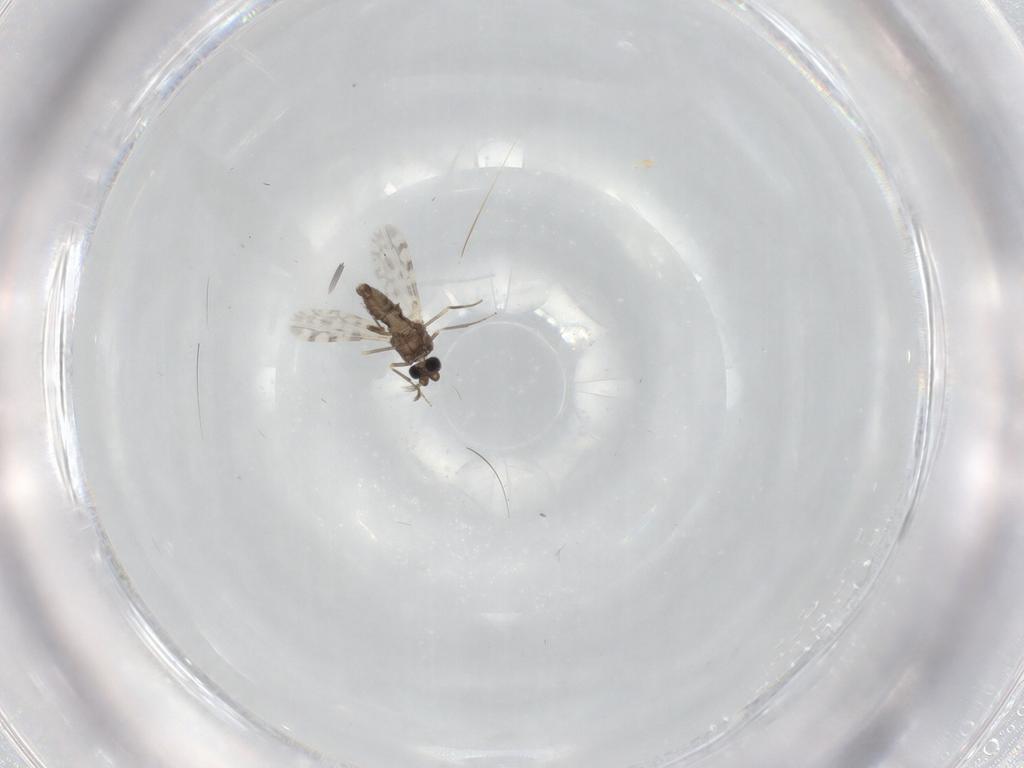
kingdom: Animalia
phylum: Arthropoda
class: Insecta
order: Diptera
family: Ceratopogonidae
